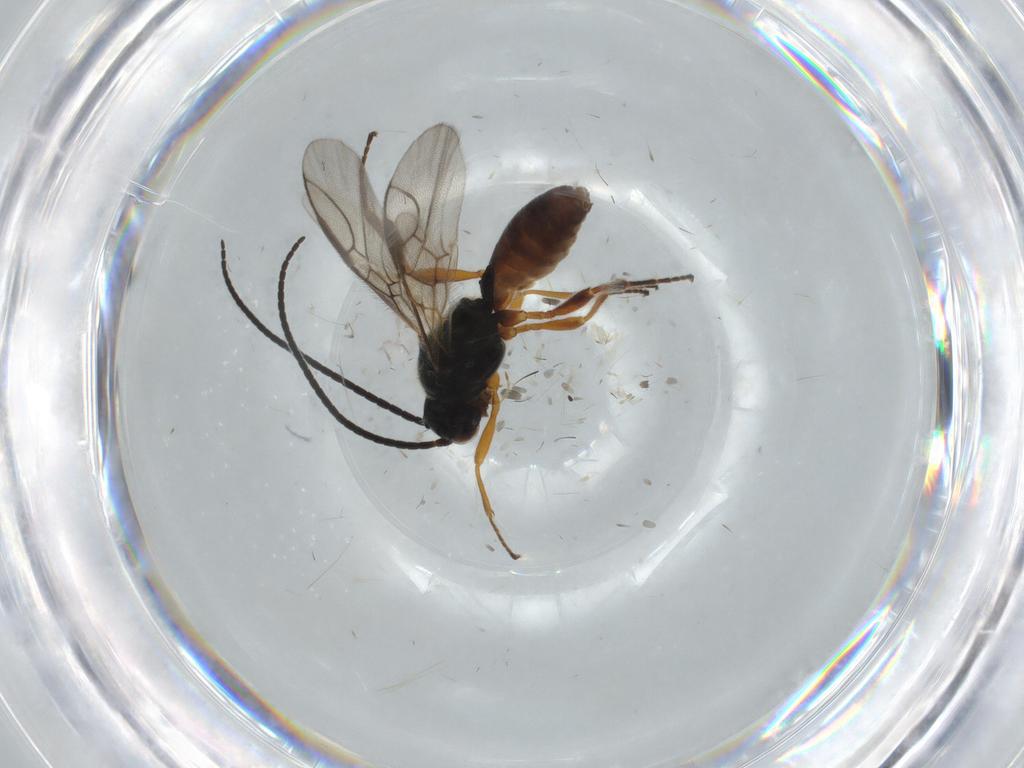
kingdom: Animalia
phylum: Arthropoda
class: Insecta
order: Hymenoptera
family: Braconidae
